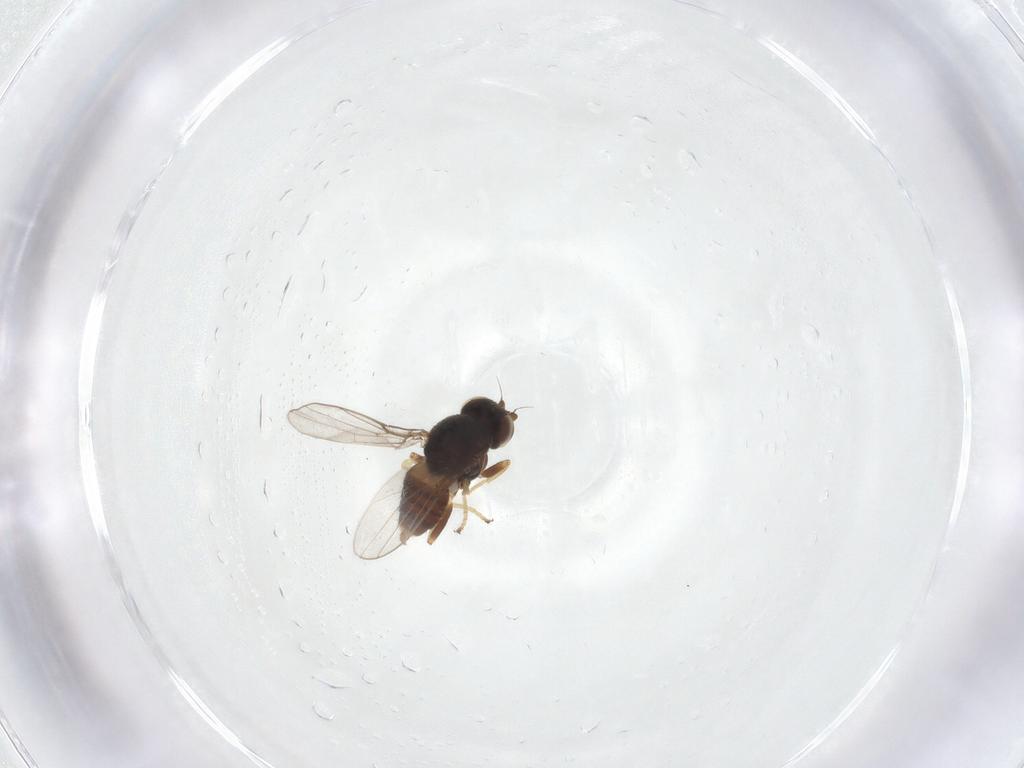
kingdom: Animalia
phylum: Arthropoda
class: Insecta
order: Diptera
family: Chloropidae
